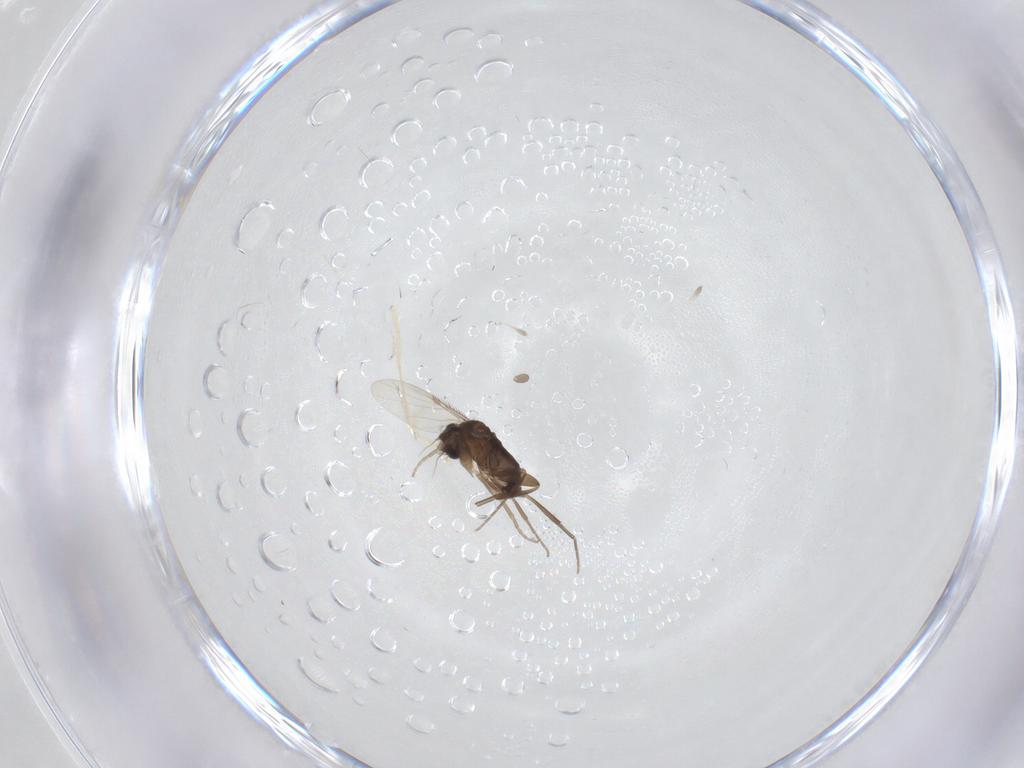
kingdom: Animalia
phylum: Arthropoda
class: Insecta
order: Diptera
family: Phoridae
